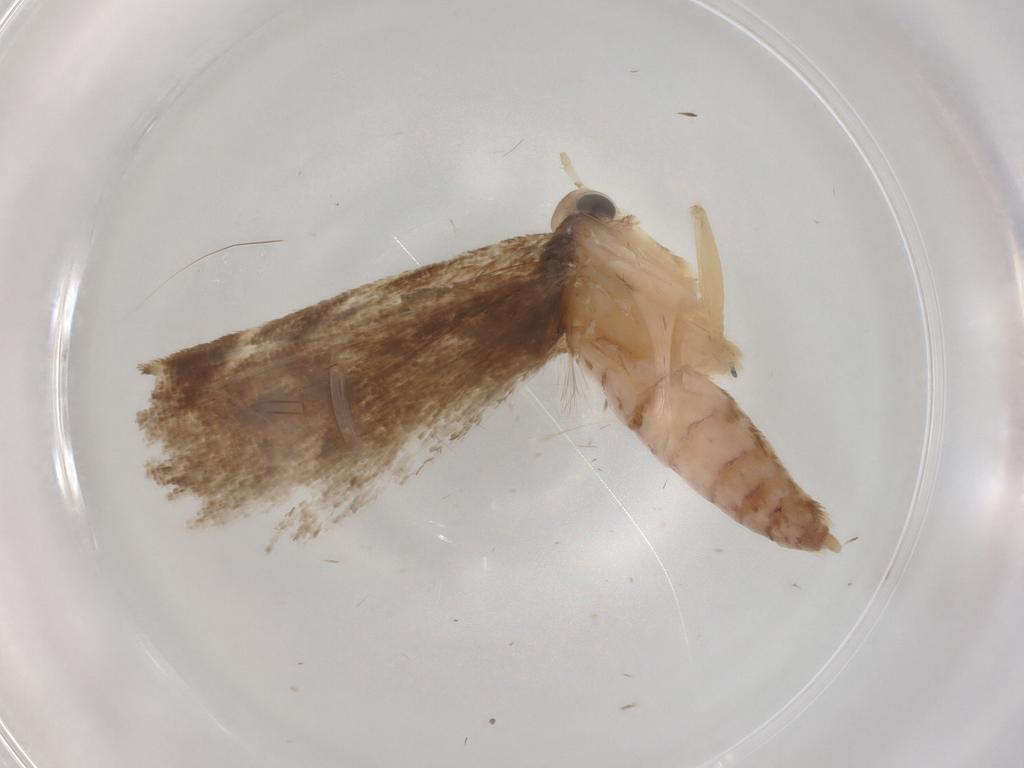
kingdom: Animalia
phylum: Arthropoda
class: Insecta
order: Lepidoptera
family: Gelechiidae
